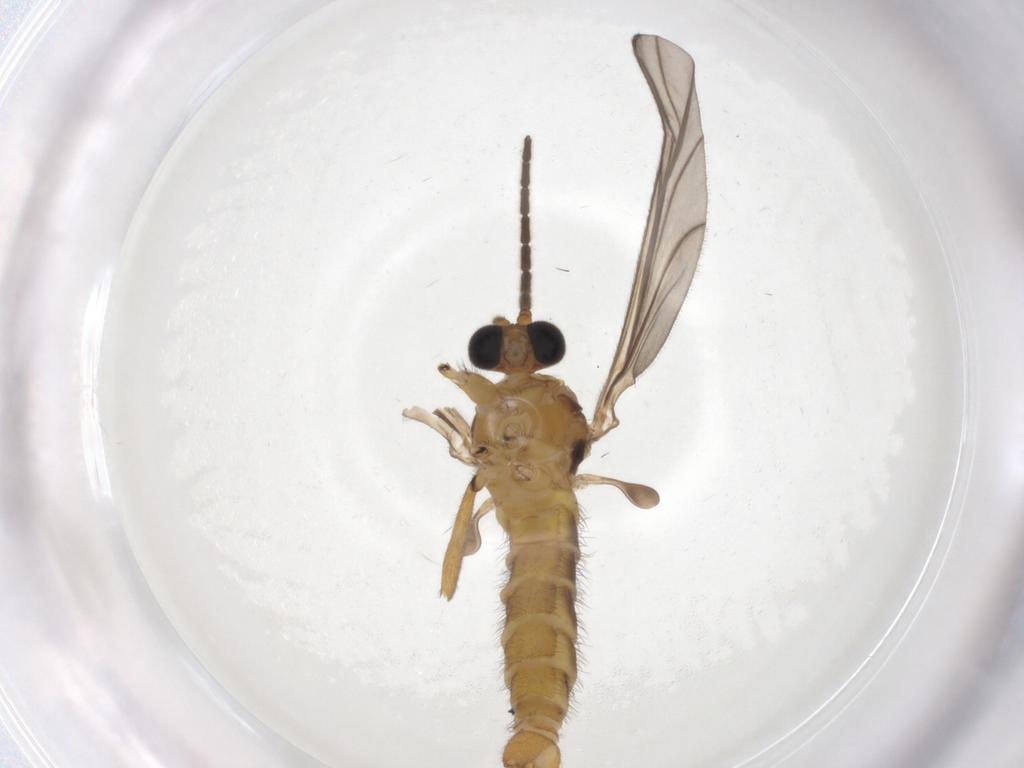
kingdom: Animalia
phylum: Arthropoda
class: Insecta
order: Diptera
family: Sciaridae
